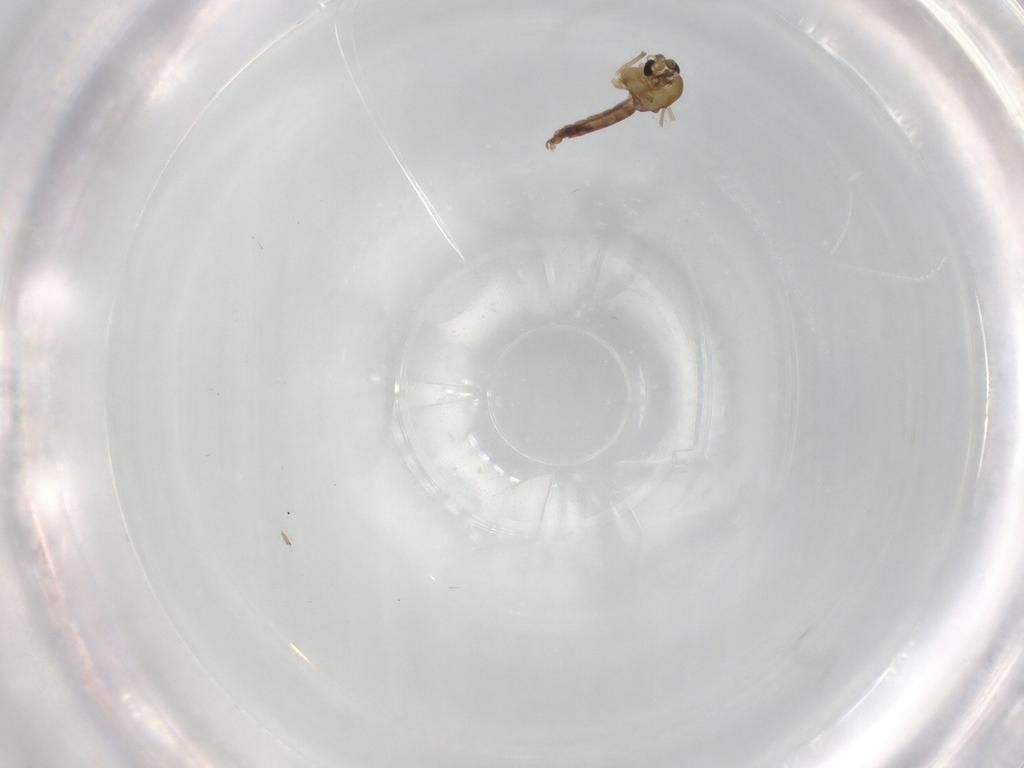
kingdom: Animalia
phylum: Arthropoda
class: Insecta
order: Diptera
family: Chironomidae
